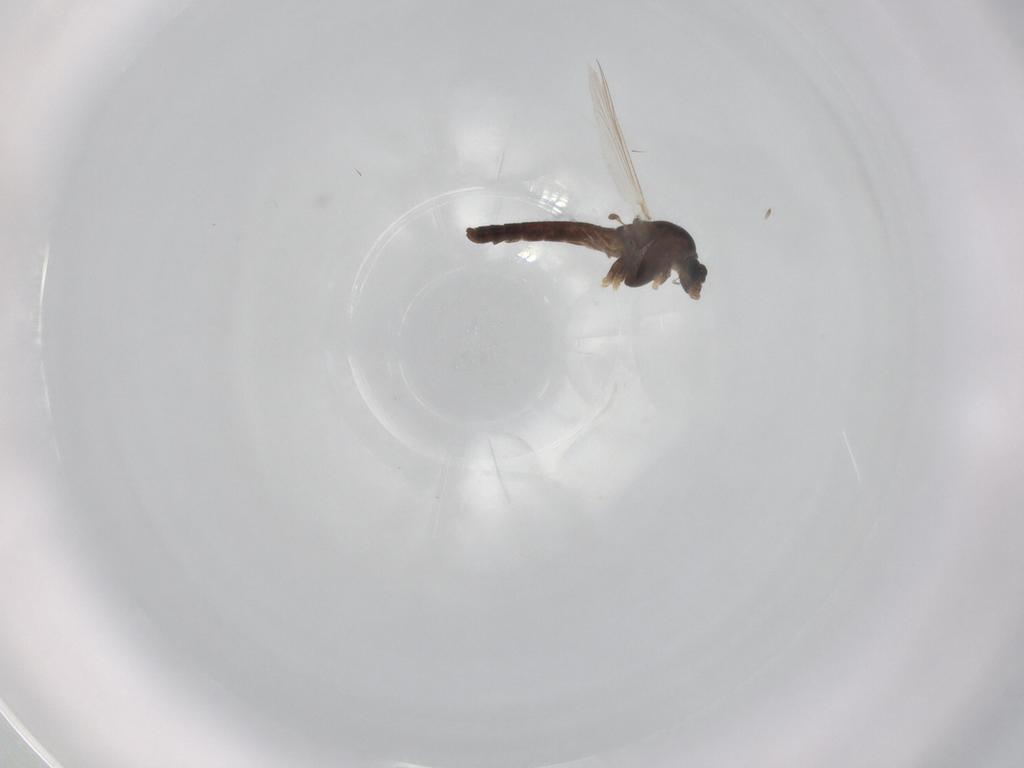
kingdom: Animalia
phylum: Arthropoda
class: Insecta
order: Diptera
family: Chironomidae
